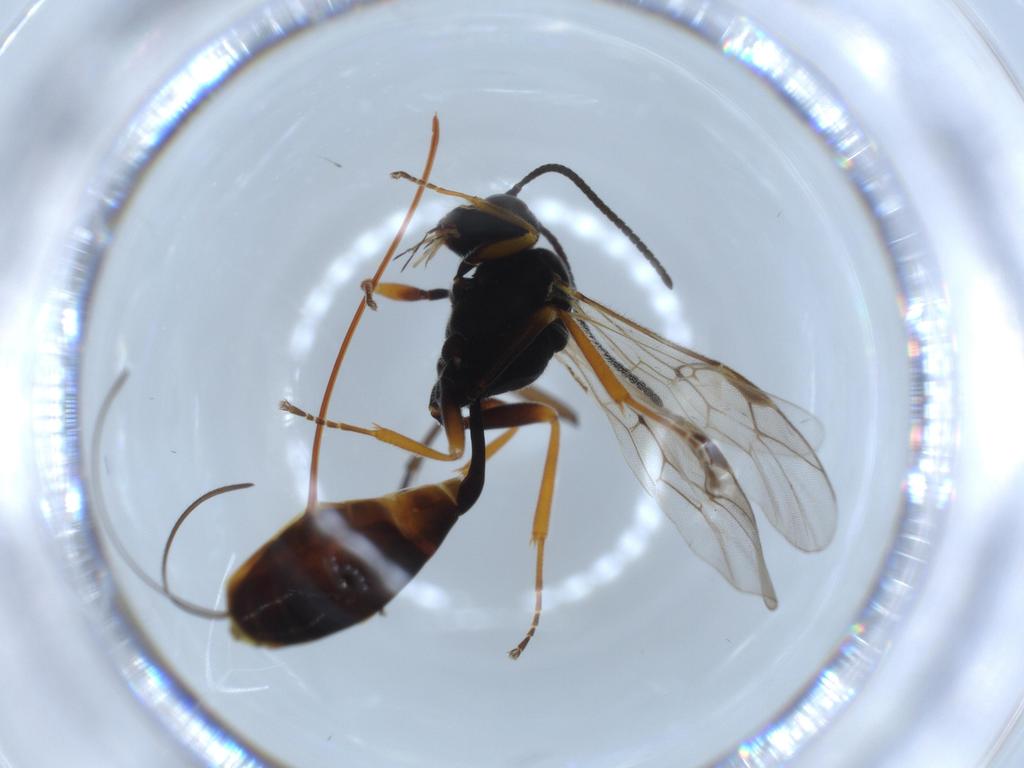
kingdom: Animalia
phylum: Arthropoda
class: Insecta
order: Hymenoptera
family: Ichneumonidae
